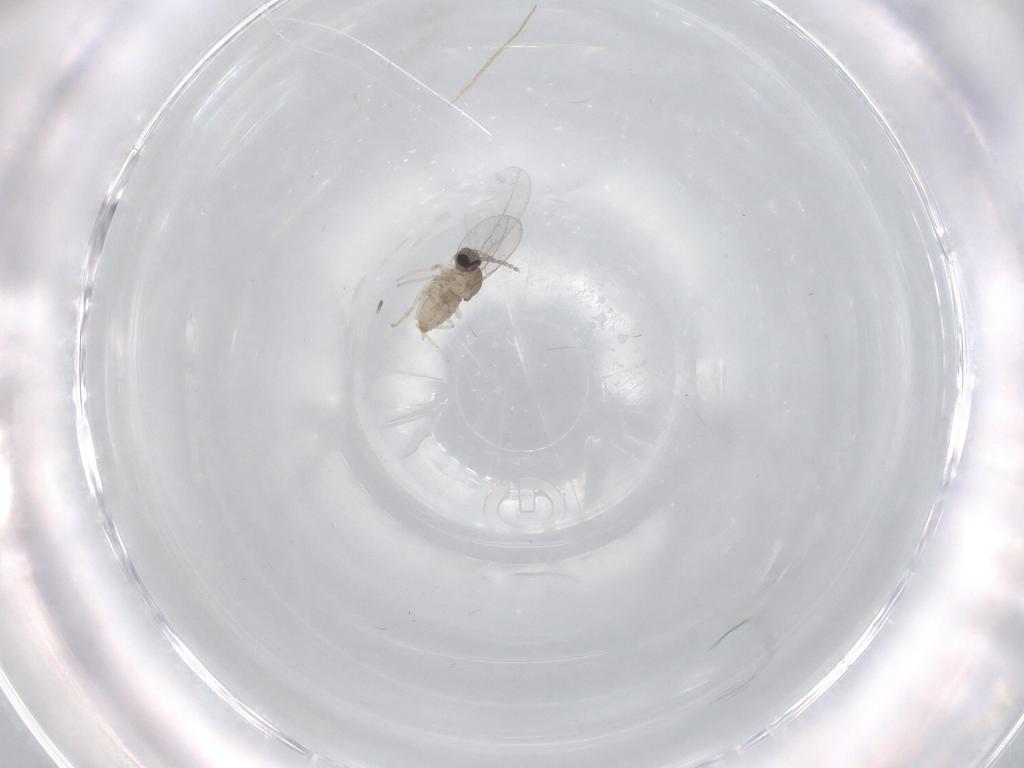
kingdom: Animalia
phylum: Arthropoda
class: Insecta
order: Diptera
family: Cecidomyiidae
